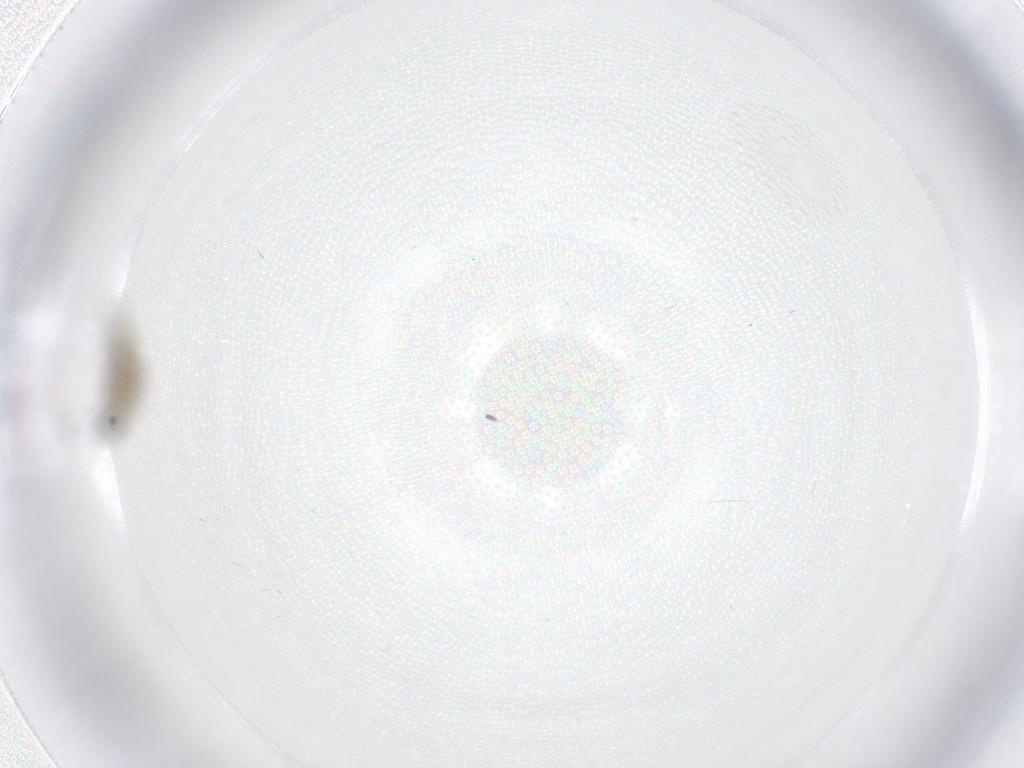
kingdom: Animalia
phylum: Arthropoda
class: Insecta
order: Diptera
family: Cecidomyiidae
